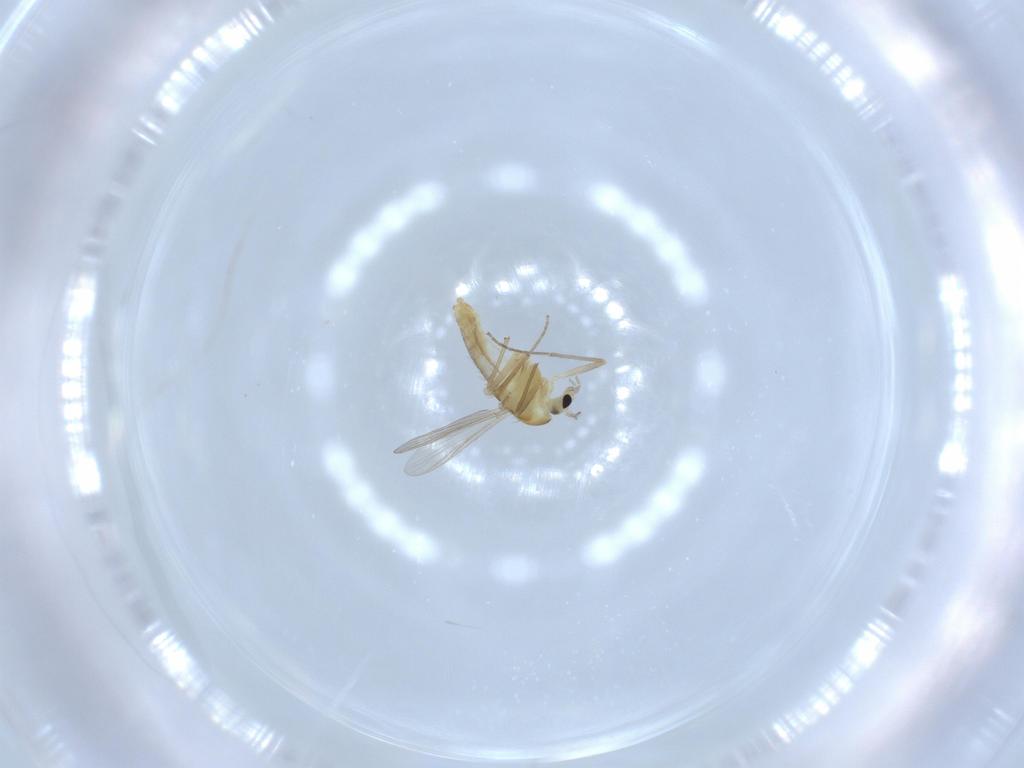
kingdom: Animalia
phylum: Arthropoda
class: Insecta
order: Diptera
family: Chironomidae
